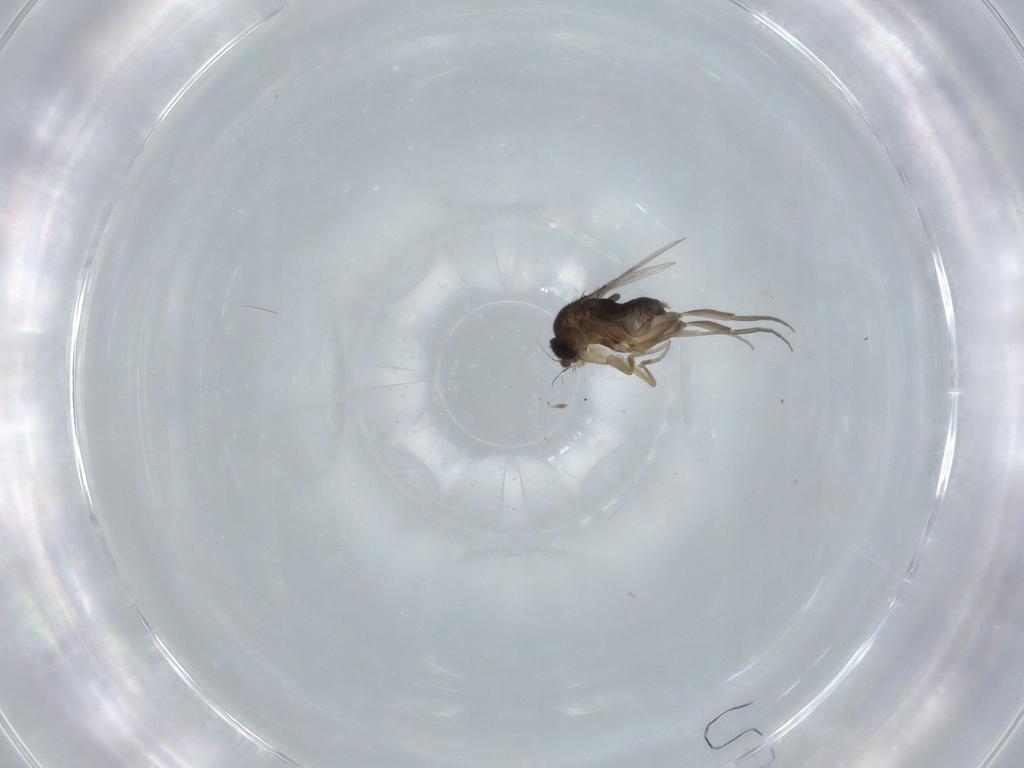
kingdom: Animalia
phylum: Arthropoda
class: Insecta
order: Diptera
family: Phoridae
